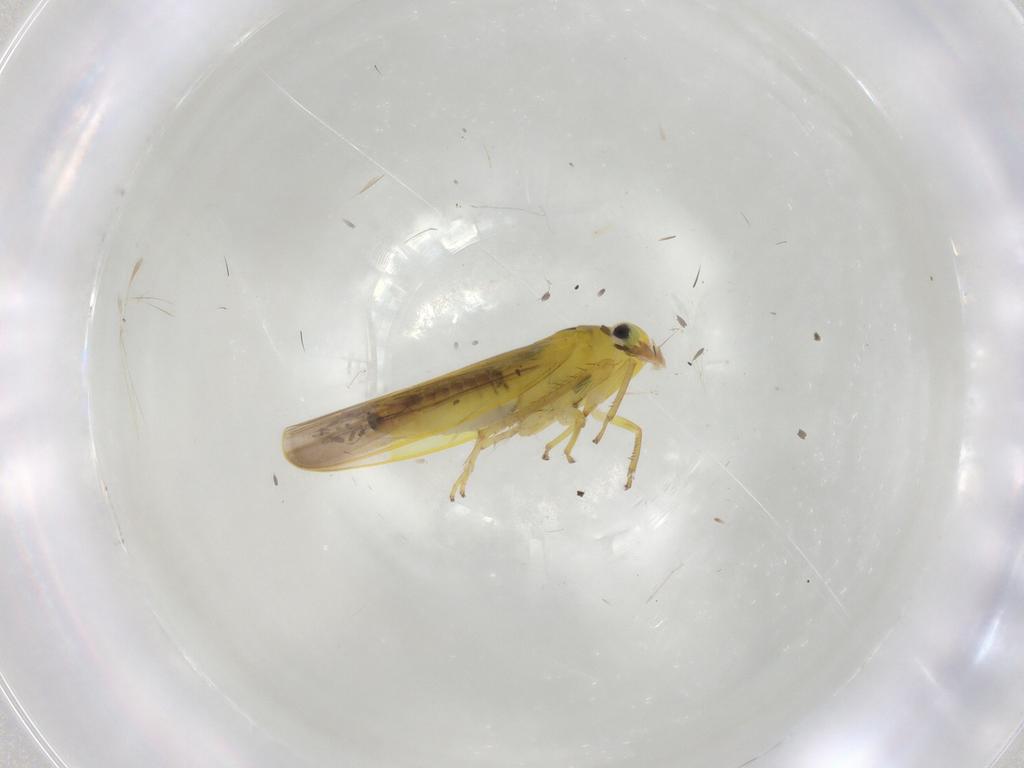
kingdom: Animalia
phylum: Arthropoda
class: Insecta
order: Hemiptera
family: Cicadellidae
